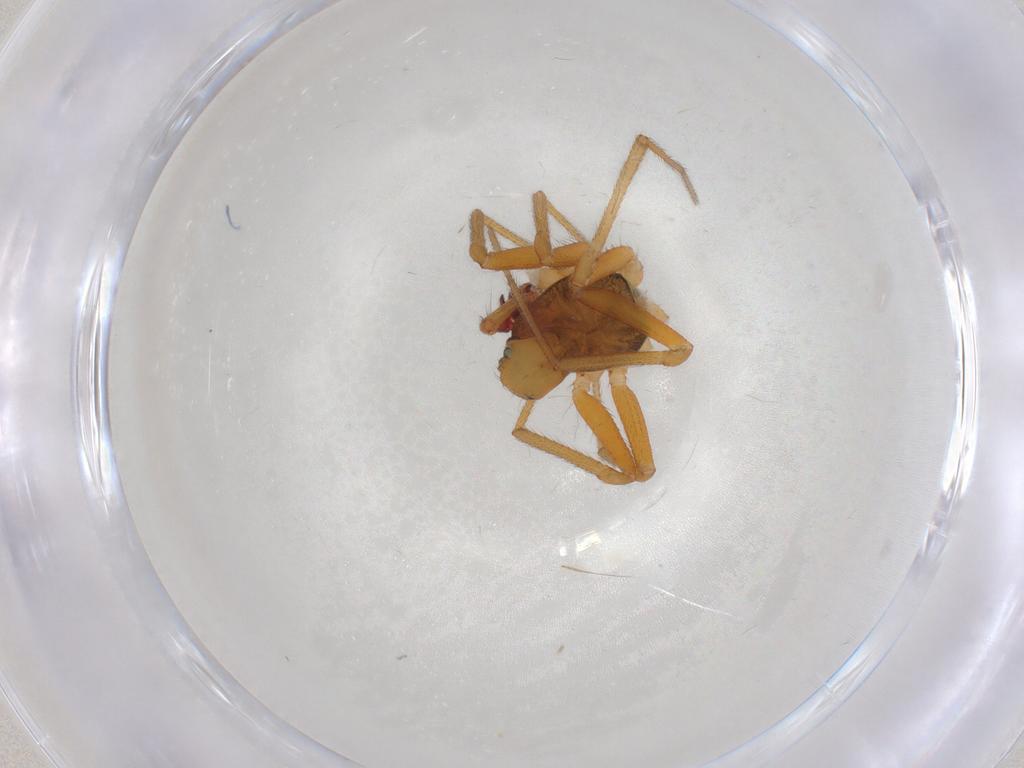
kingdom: Animalia
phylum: Arthropoda
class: Arachnida
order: Araneae
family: Linyphiidae
